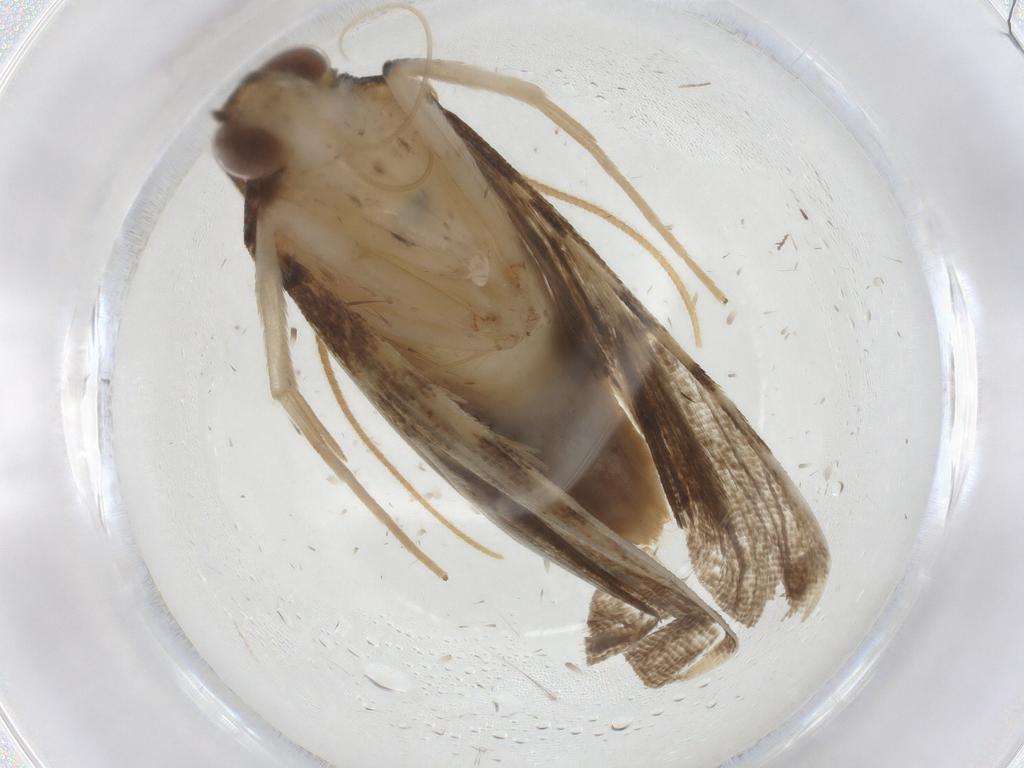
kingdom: Animalia
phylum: Arthropoda
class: Insecta
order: Lepidoptera
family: Crambidae
